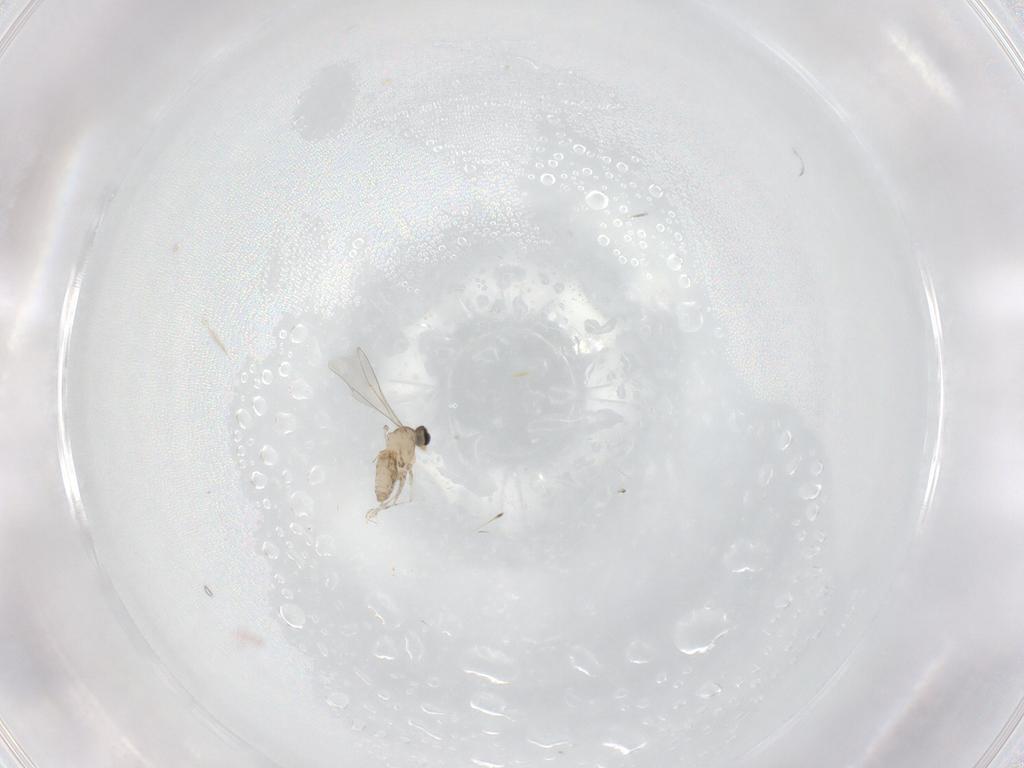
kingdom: Animalia
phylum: Arthropoda
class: Insecta
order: Diptera
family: Cecidomyiidae
